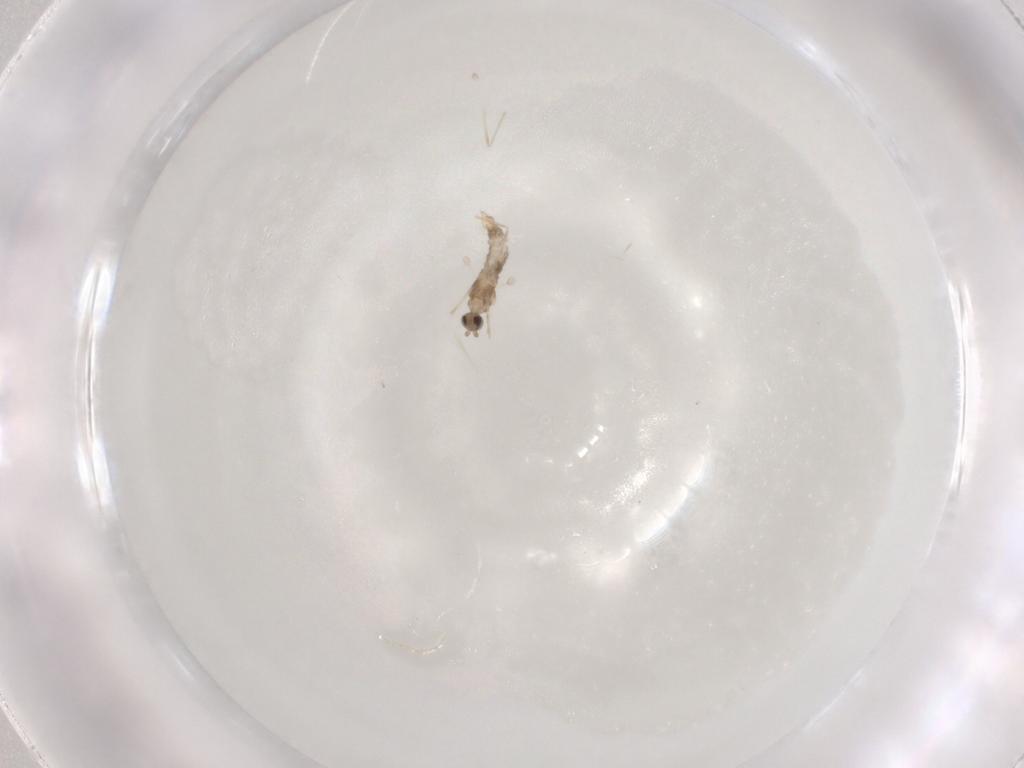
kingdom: Animalia
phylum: Arthropoda
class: Insecta
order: Diptera
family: Cecidomyiidae
